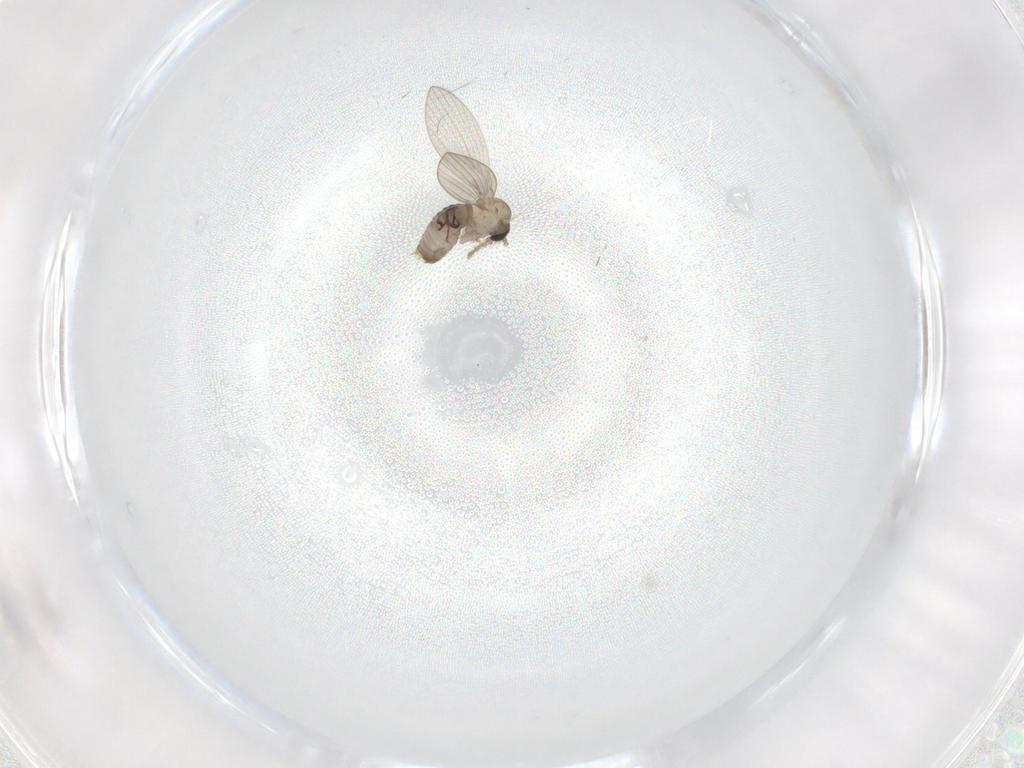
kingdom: Animalia
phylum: Arthropoda
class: Insecta
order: Diptera
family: Psychodidae
